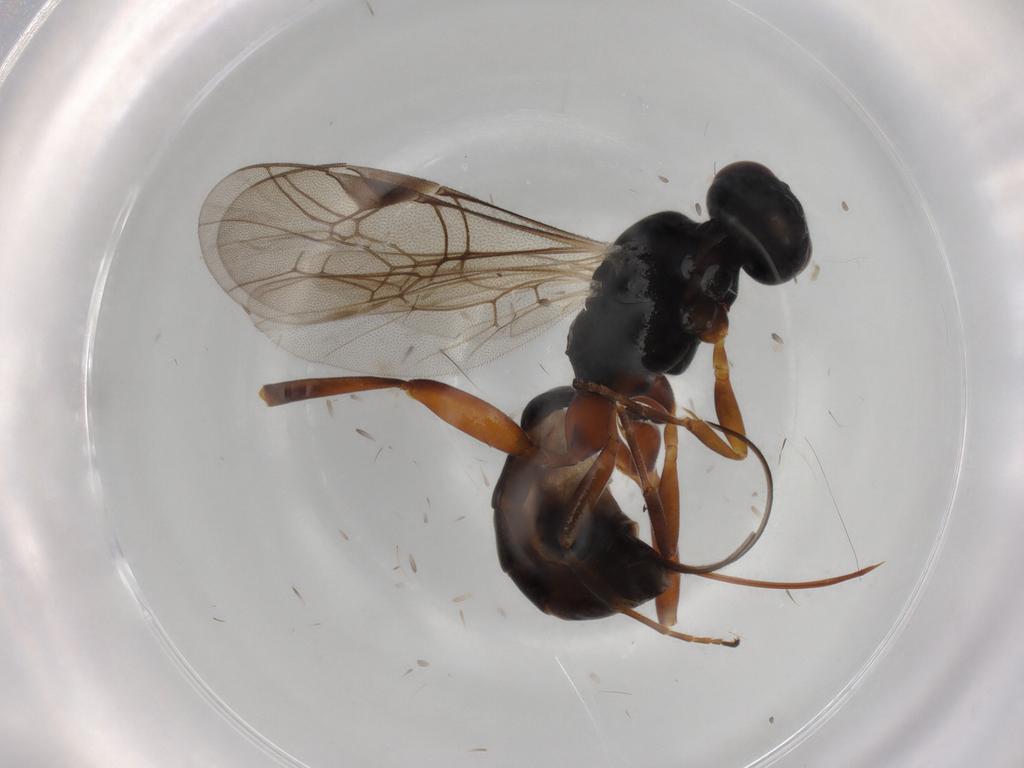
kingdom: Animalia
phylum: Arthropoda
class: Insecta
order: Hymenoptera
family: Ichneumonidae
